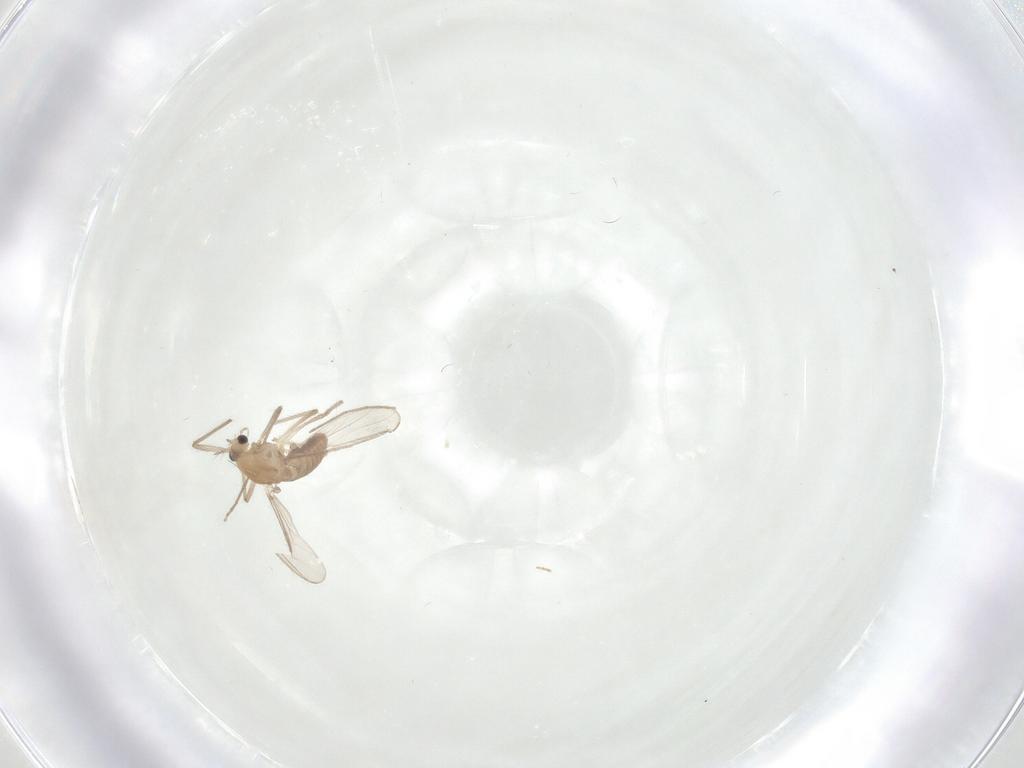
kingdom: Animalia
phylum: Arthropoda
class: Insecta
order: Diptera
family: Chironomidae
